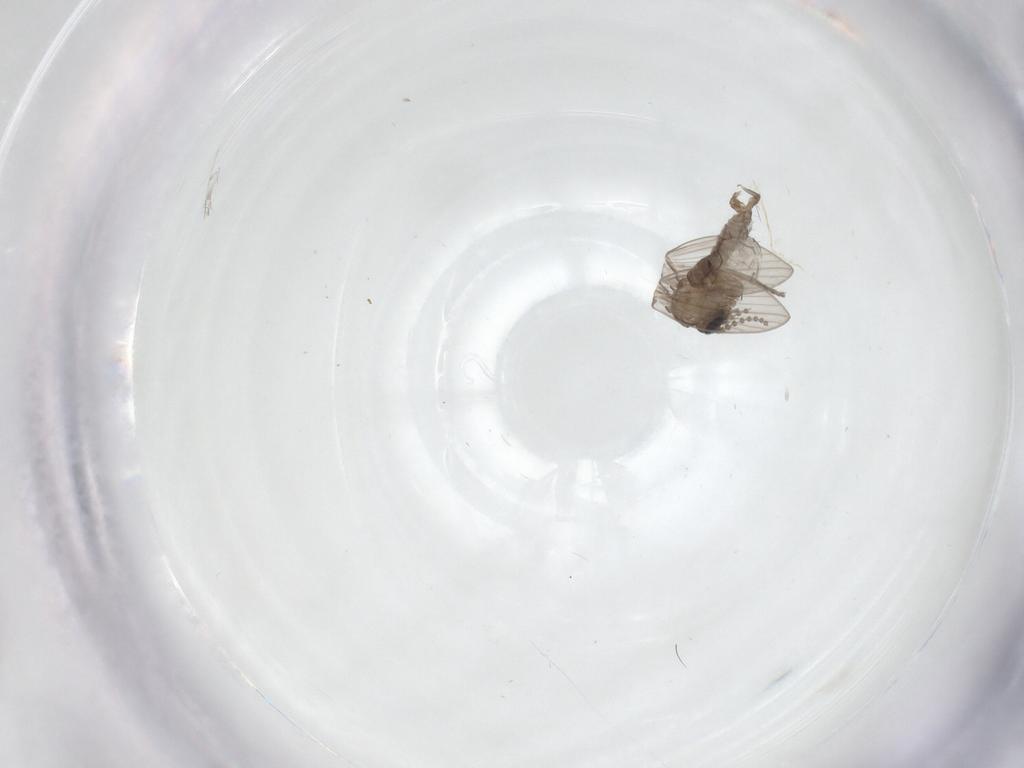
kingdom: Animalia
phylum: Arthropoda
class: Insecta
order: Diptera
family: Psychodidae
